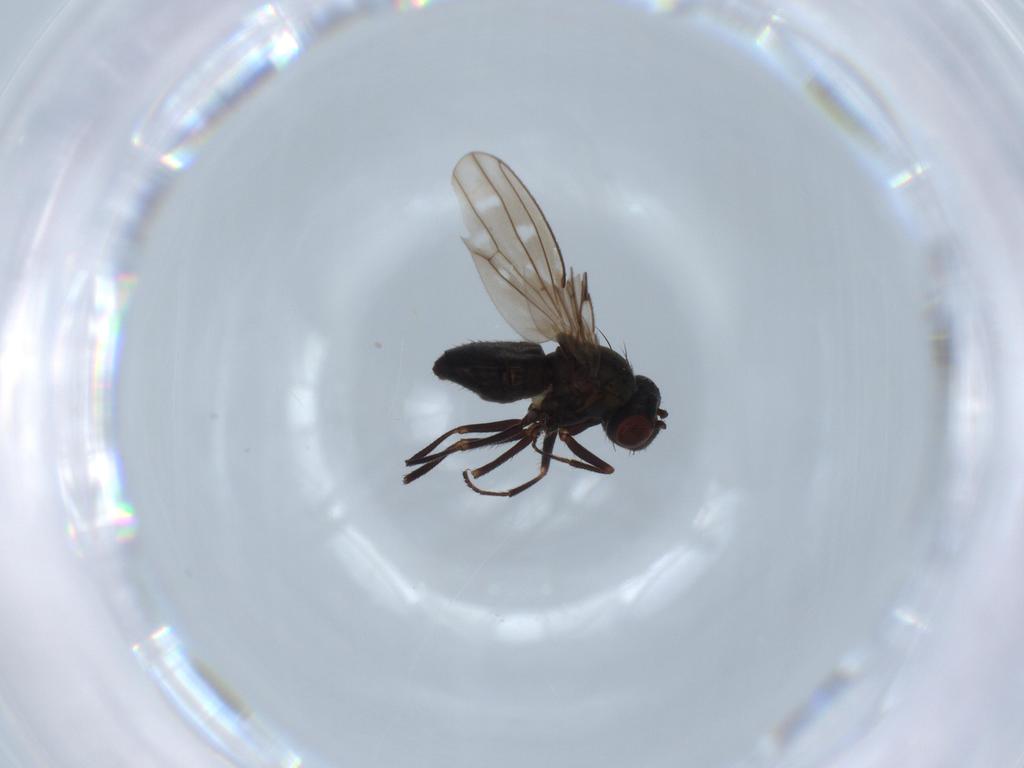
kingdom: Animalia
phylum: Arthropoda
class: Insecta
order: Diptera
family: Ephydridae
